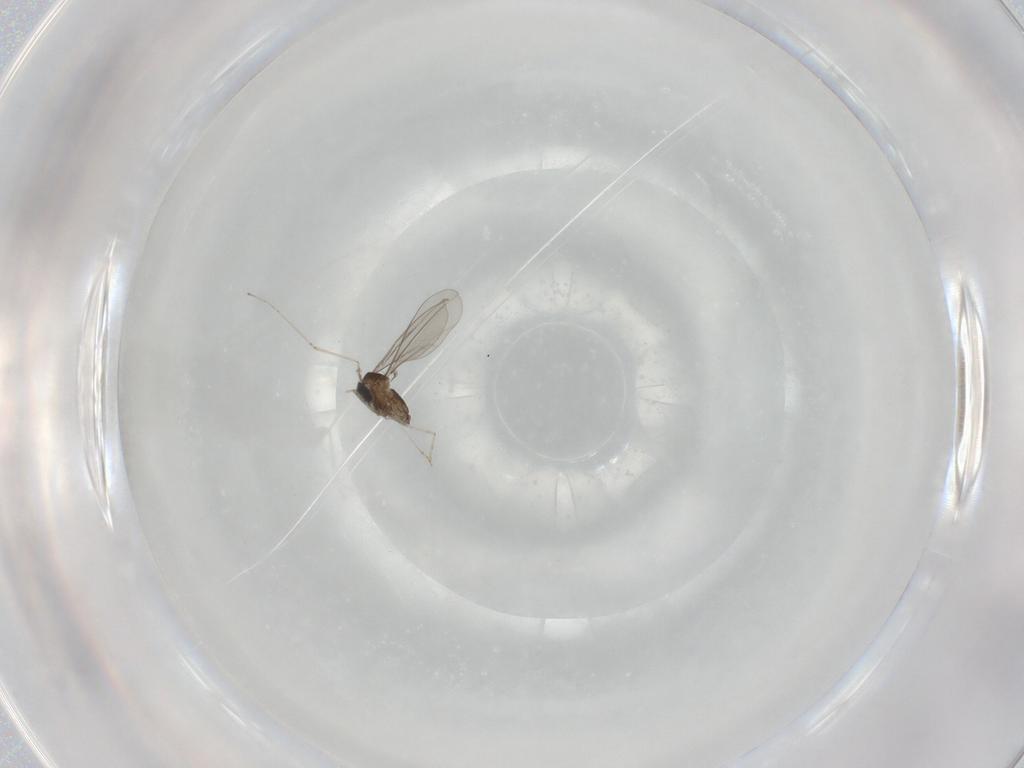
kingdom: Animalia
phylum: Arthropoda
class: Insecta
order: Diptera
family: Cecidomyiidae
